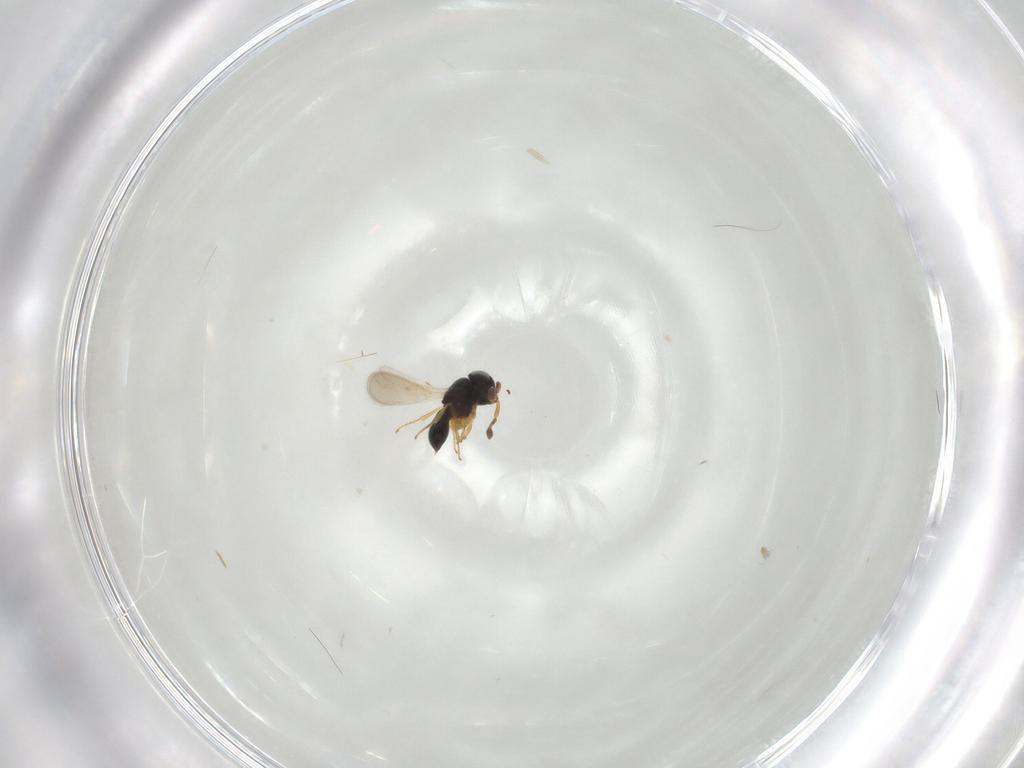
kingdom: Animalia
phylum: Arthropoda
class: Insecta
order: Hymenoptera
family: Scelionidae
